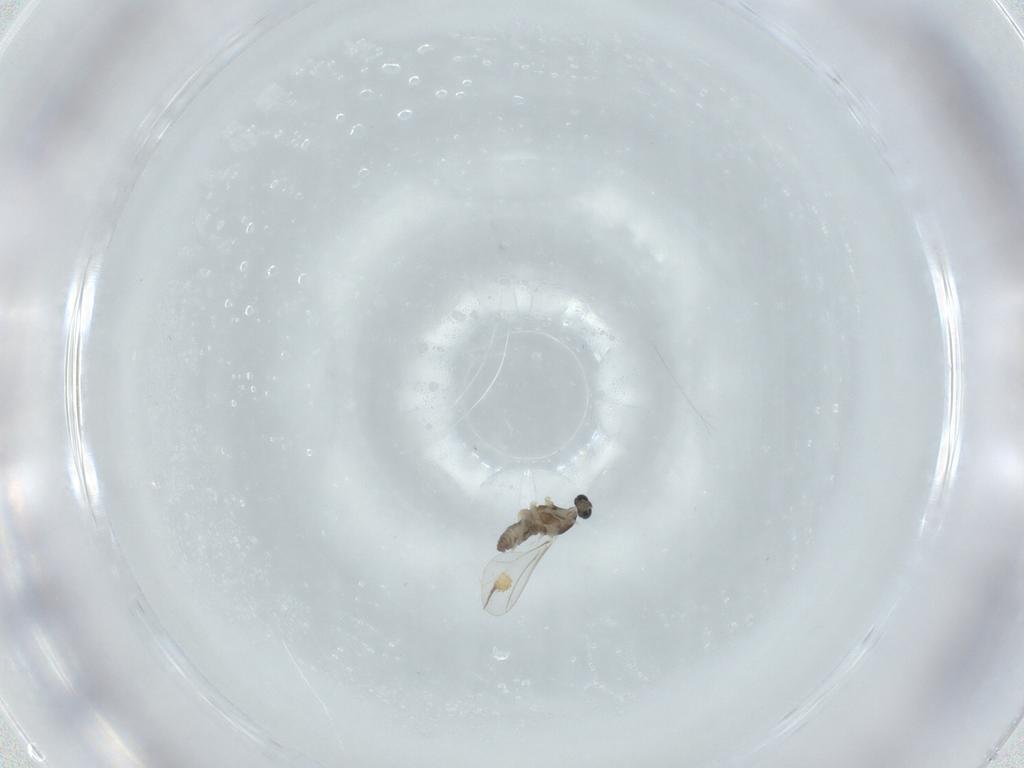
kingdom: Animalia
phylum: Arthropoda
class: Insecta
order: Diptera
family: Cecidomyiidae
